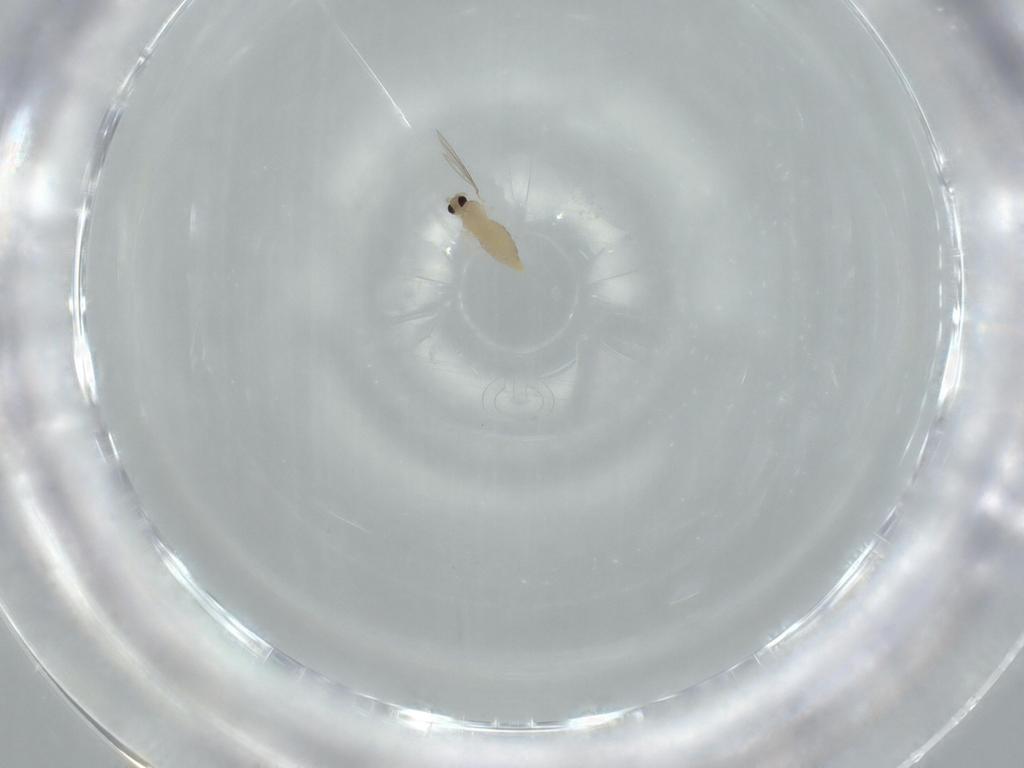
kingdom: Animalia
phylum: Arthropoda
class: Insecta
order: Diptera
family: Cecidomyiidae
